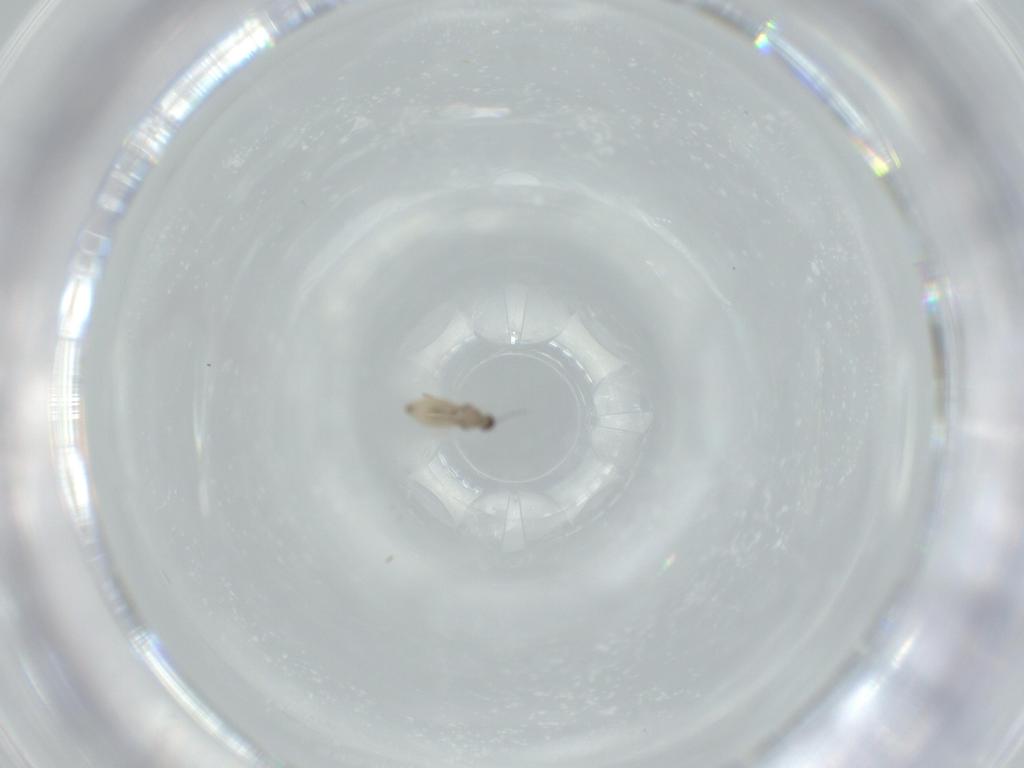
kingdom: Animalia
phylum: Arthropoda
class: Insecta
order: Diptera
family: Cecidomyiidae
